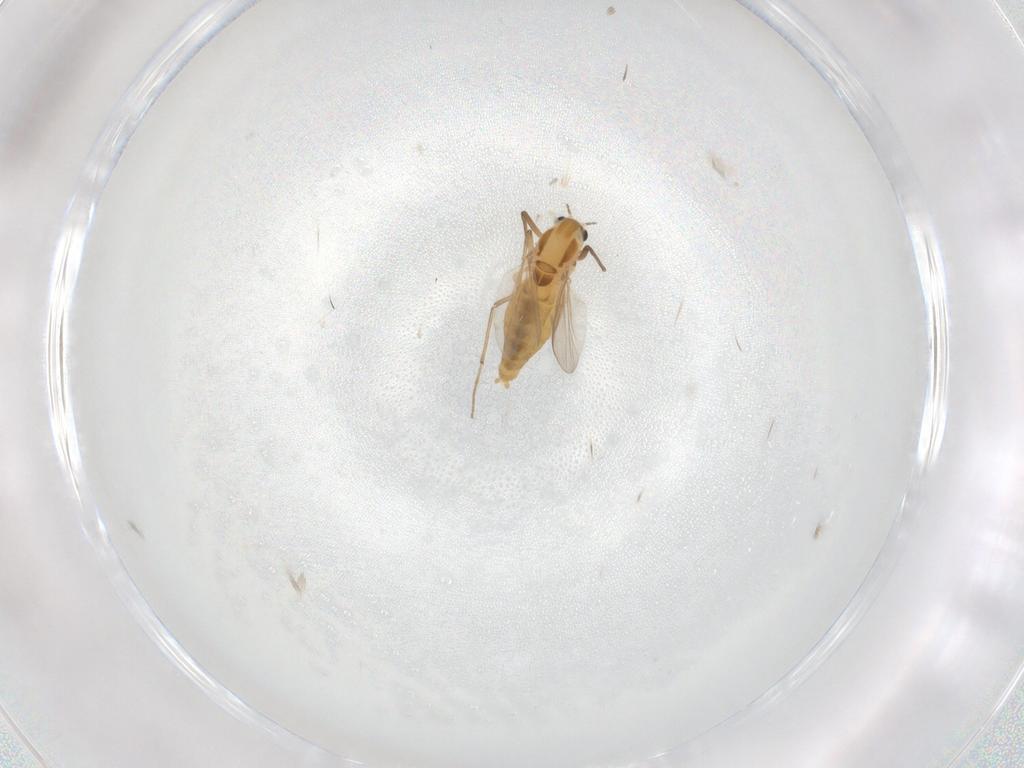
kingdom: Animalia
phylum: Arthropoda
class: Insecta
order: Diptera
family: Chironomidae
